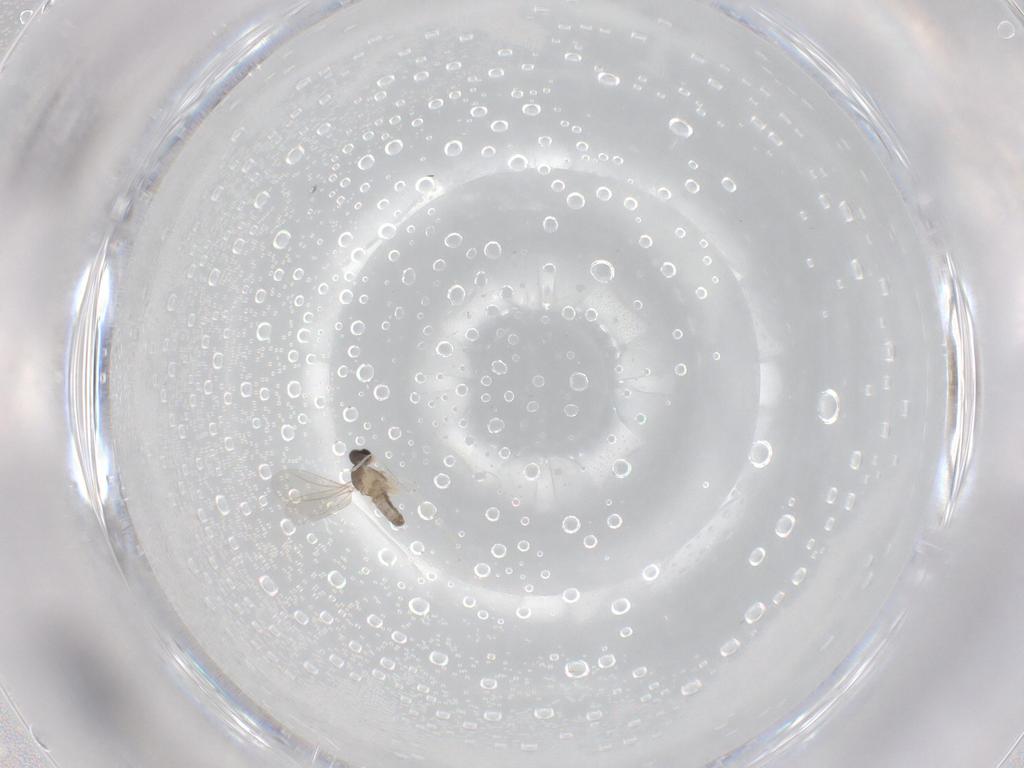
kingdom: Animalia
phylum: Arthropoda
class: Insecta
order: Diptera
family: Cecidomyiidae
